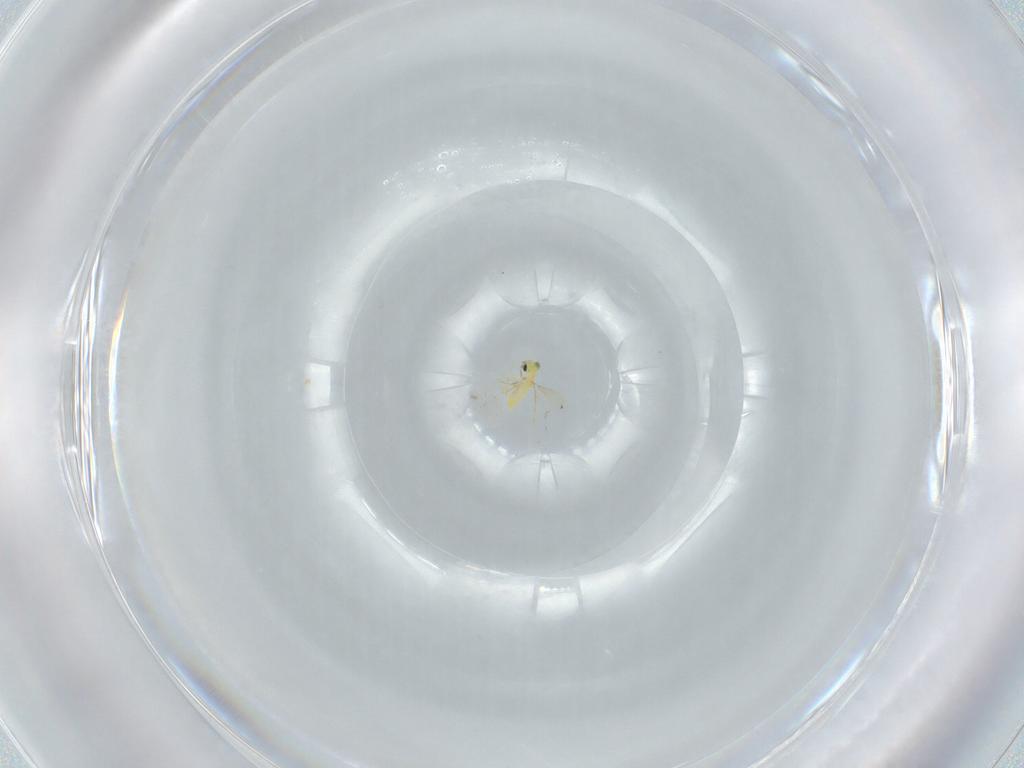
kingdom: Animalia
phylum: Arthropoda
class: Insecta
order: Hymenoptera
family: Trichogrammatidae
